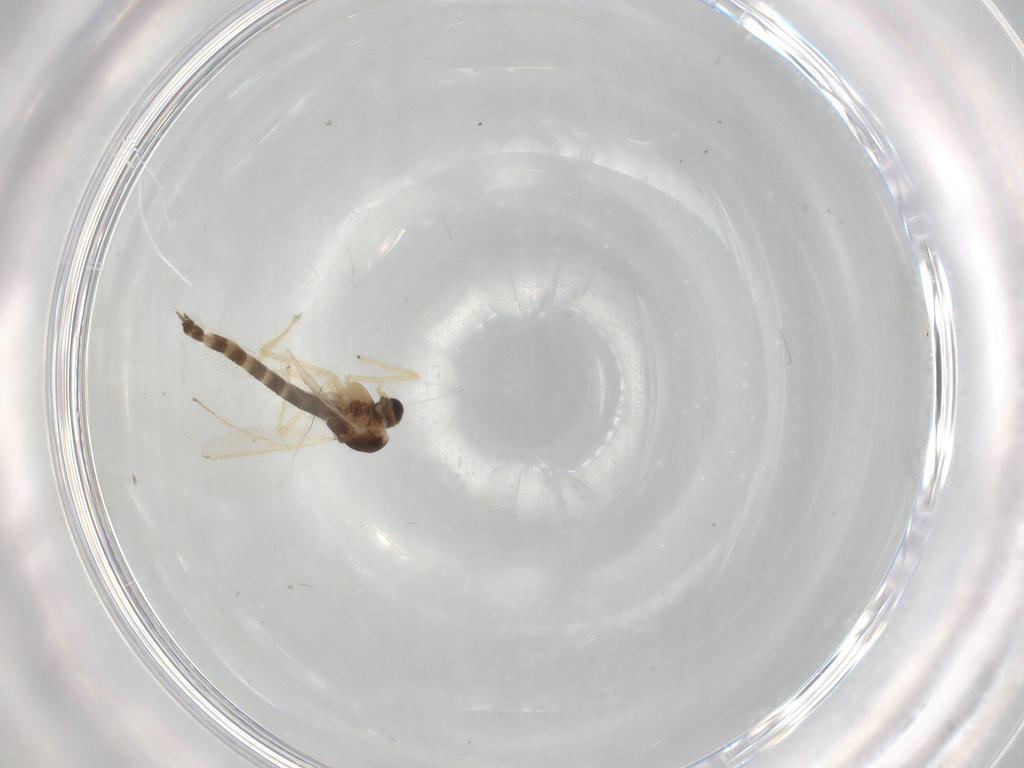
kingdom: Animalia
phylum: Arthropoda
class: Insecta
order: Diptera
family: Chironomidae
